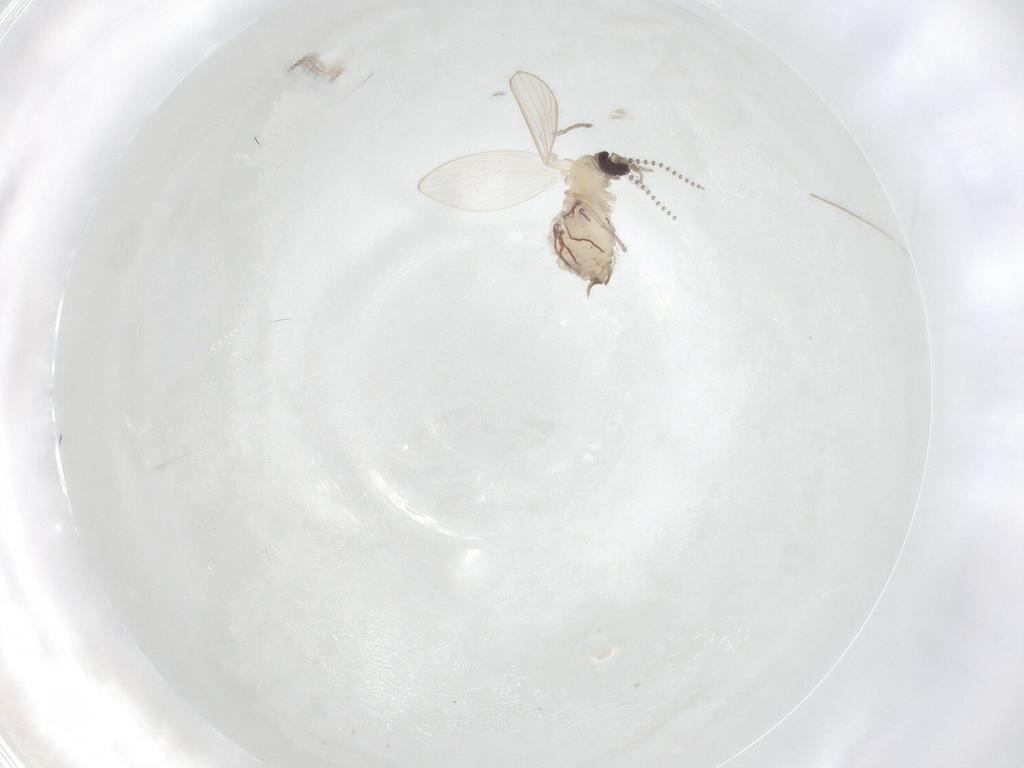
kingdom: Animalia
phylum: Arthropoda
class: Insecta
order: Diptera
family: Psychodidae
